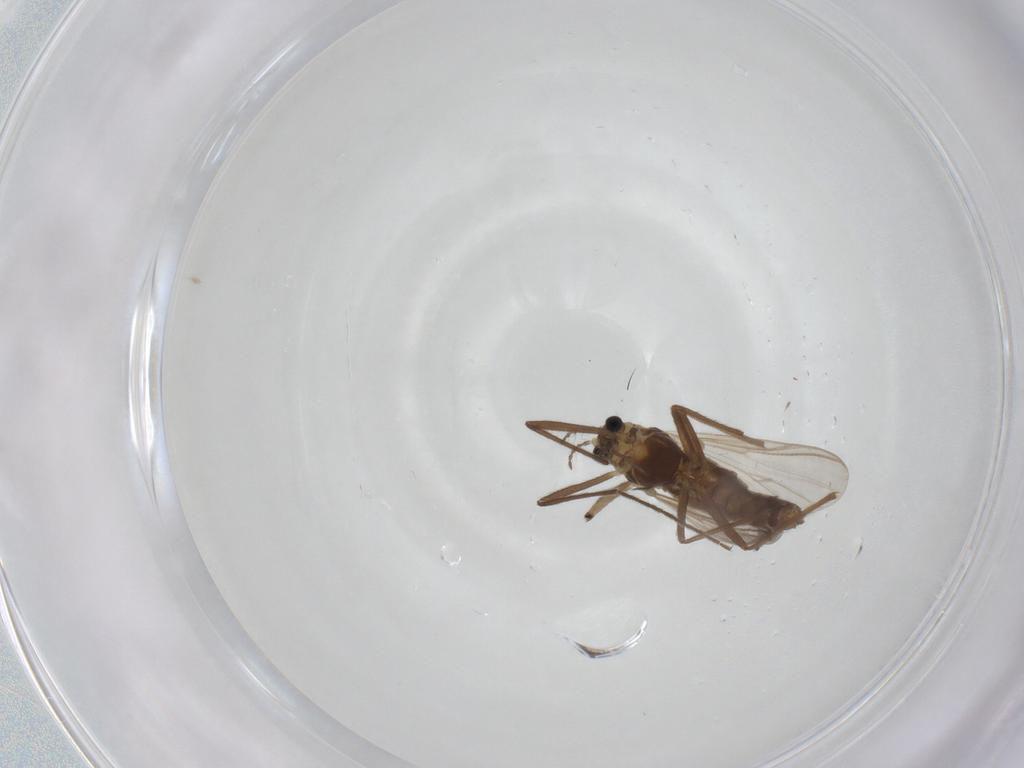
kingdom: Animalia
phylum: Arthropoda
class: Insecta
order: Diptera
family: Chironomidae
